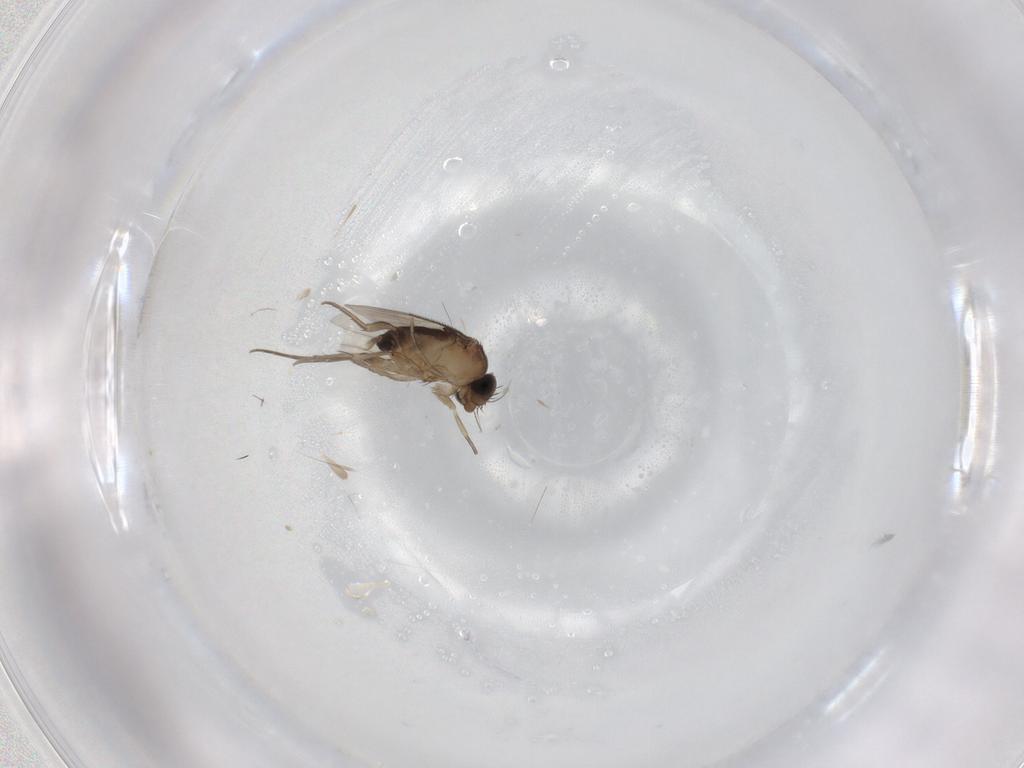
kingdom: Animalia
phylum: Arthropoda
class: Insecta
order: Diptera
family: Phoridae
